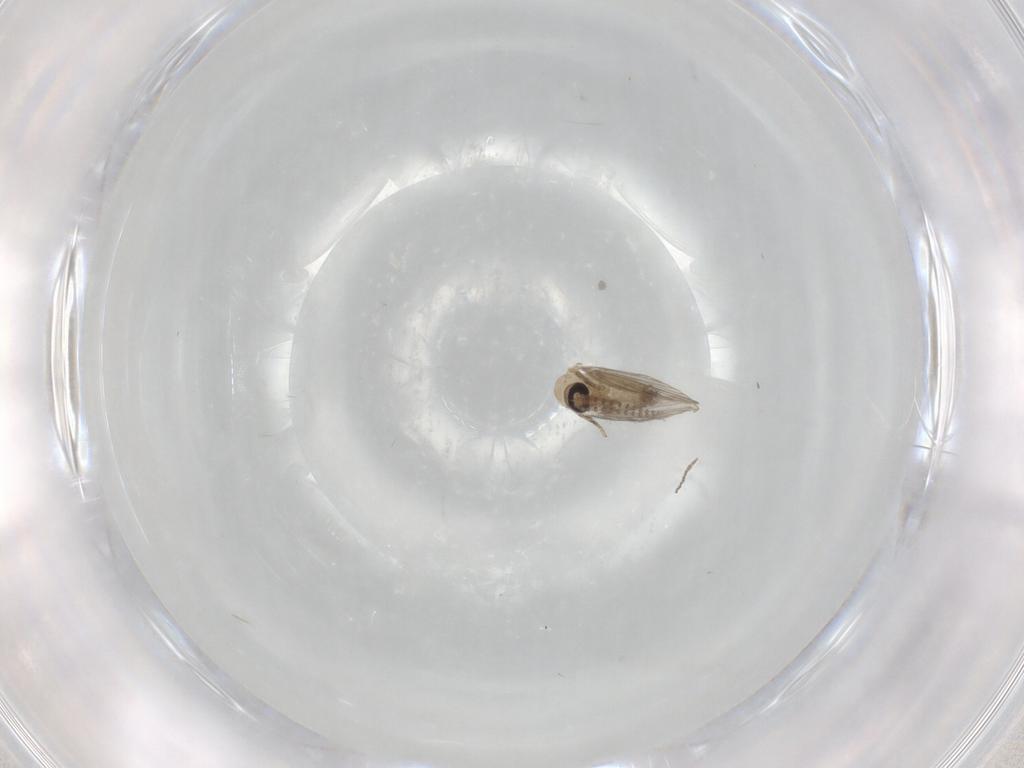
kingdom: Animalia
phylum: Arthropoda
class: Insecta
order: Diptera
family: Psychodidae
